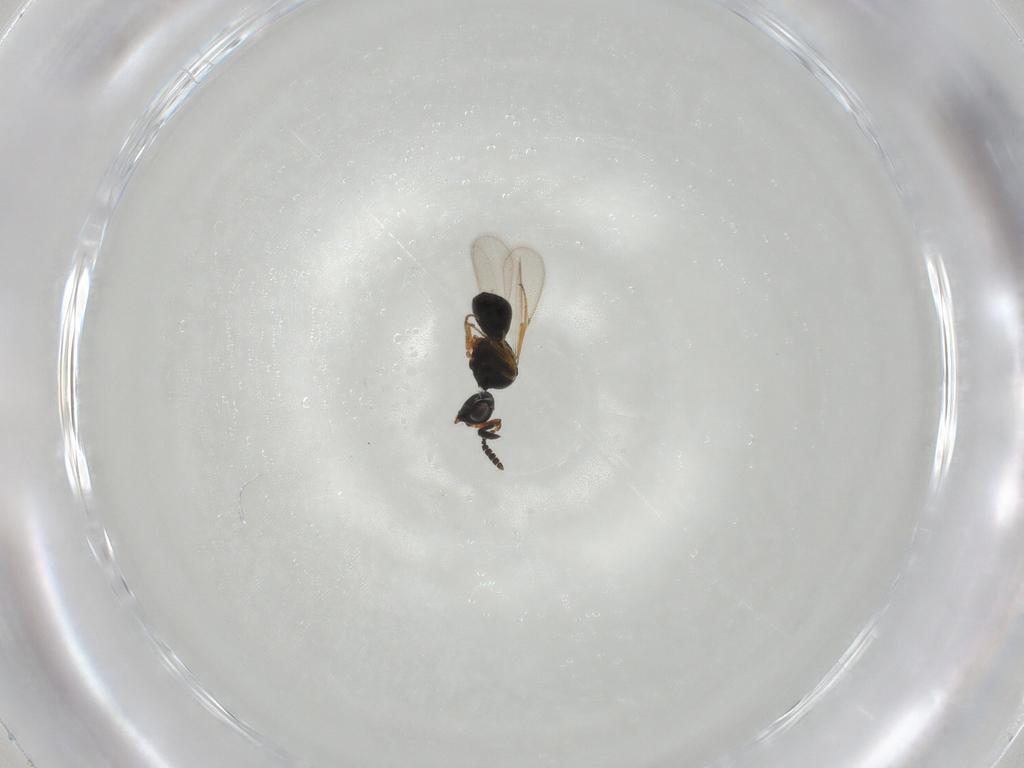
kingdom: Animalia
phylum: Arthropoda
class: Insecta
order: Hymenoptera
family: Scelionidae
